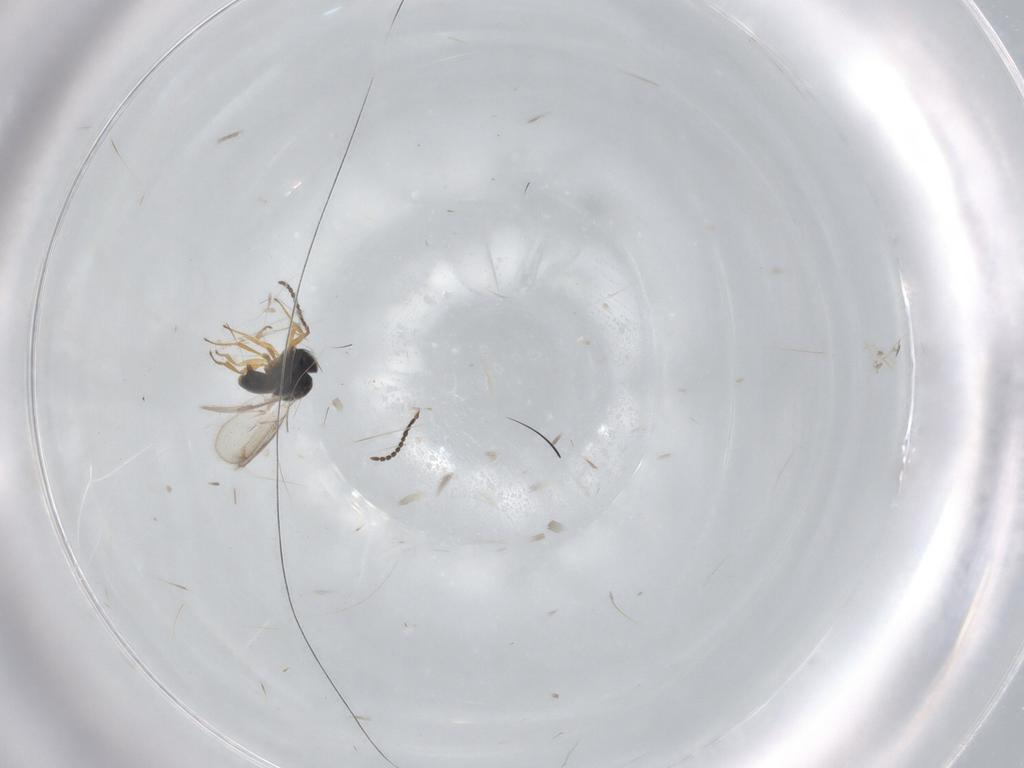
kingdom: Animalia
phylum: Arthropoda
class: Insecta
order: Hymenoptera
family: Scelionidae
